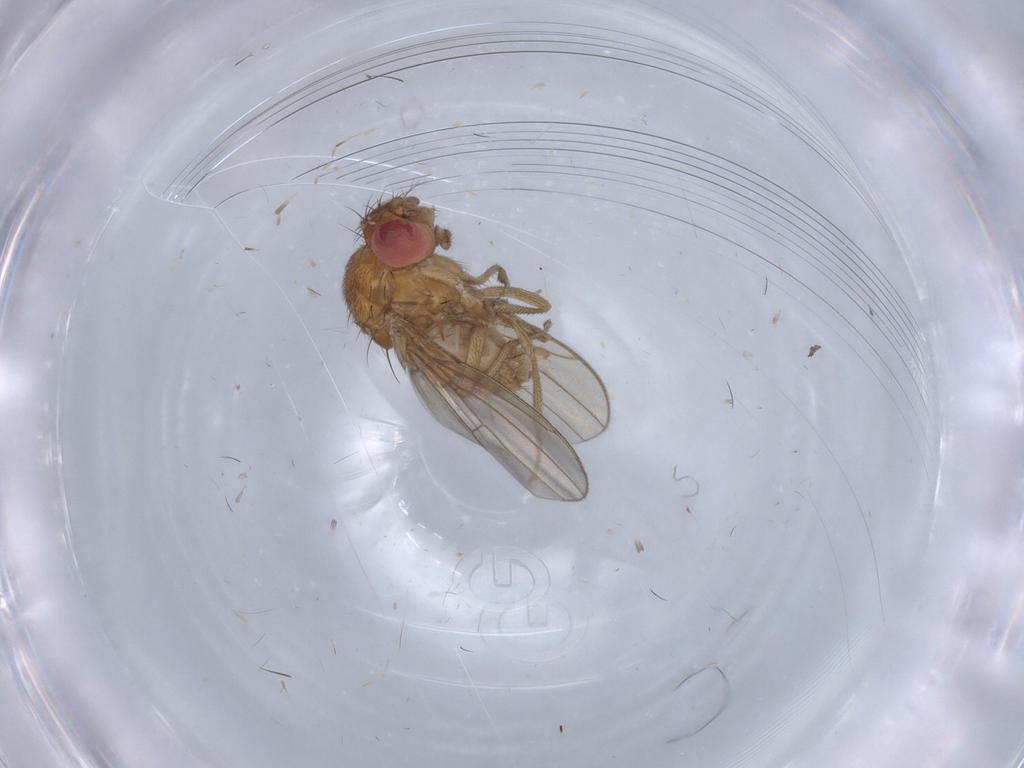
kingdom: Animalia
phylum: Arthropoda
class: Insecta
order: Diptera
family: Drosophilidae
